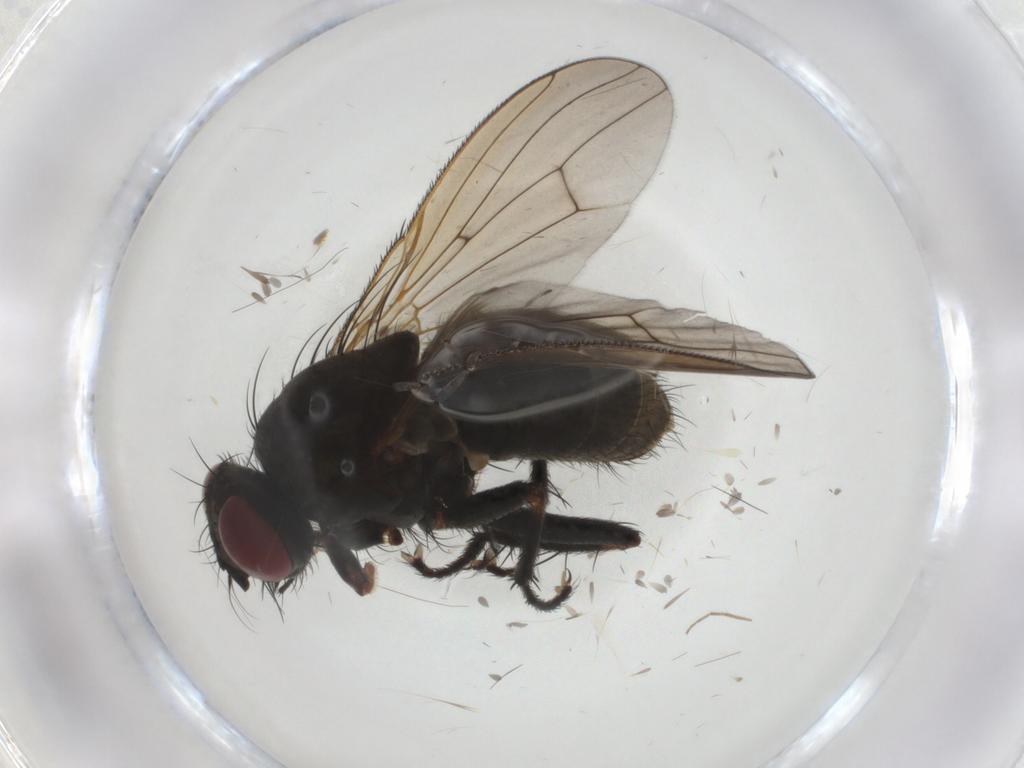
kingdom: Animalia
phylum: Arthropoda
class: Insecta
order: Diptera
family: Muscidae
